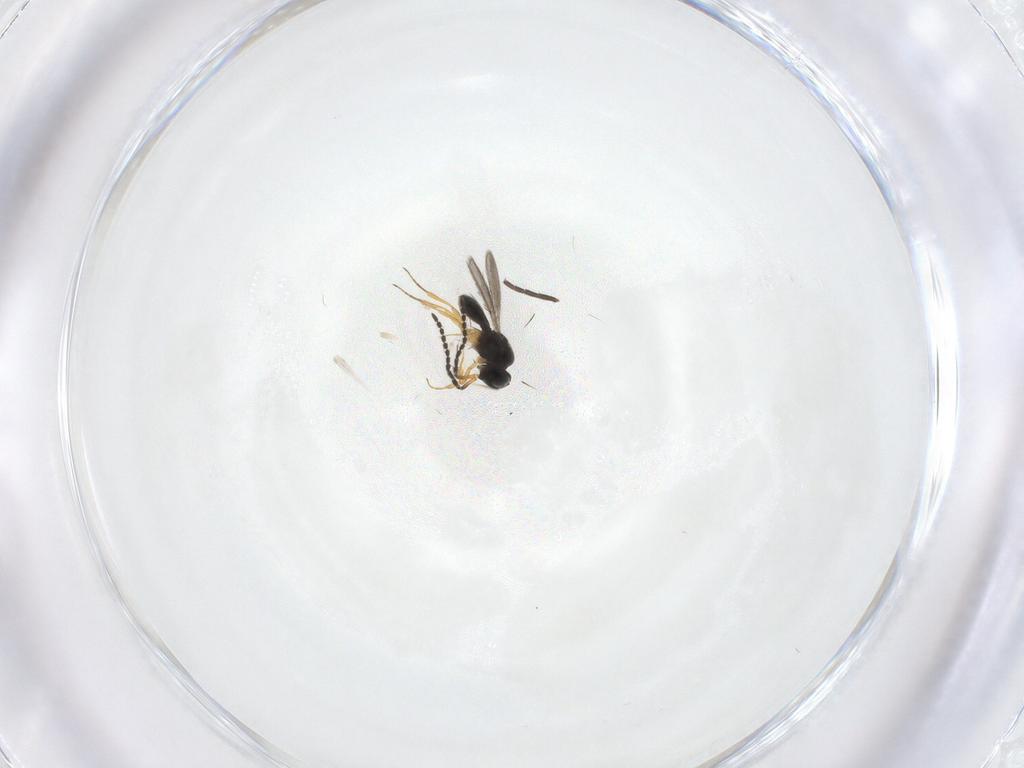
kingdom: Animalia
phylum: Arthropoda
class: Insecta
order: Hymenoptera
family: Scelionidae
